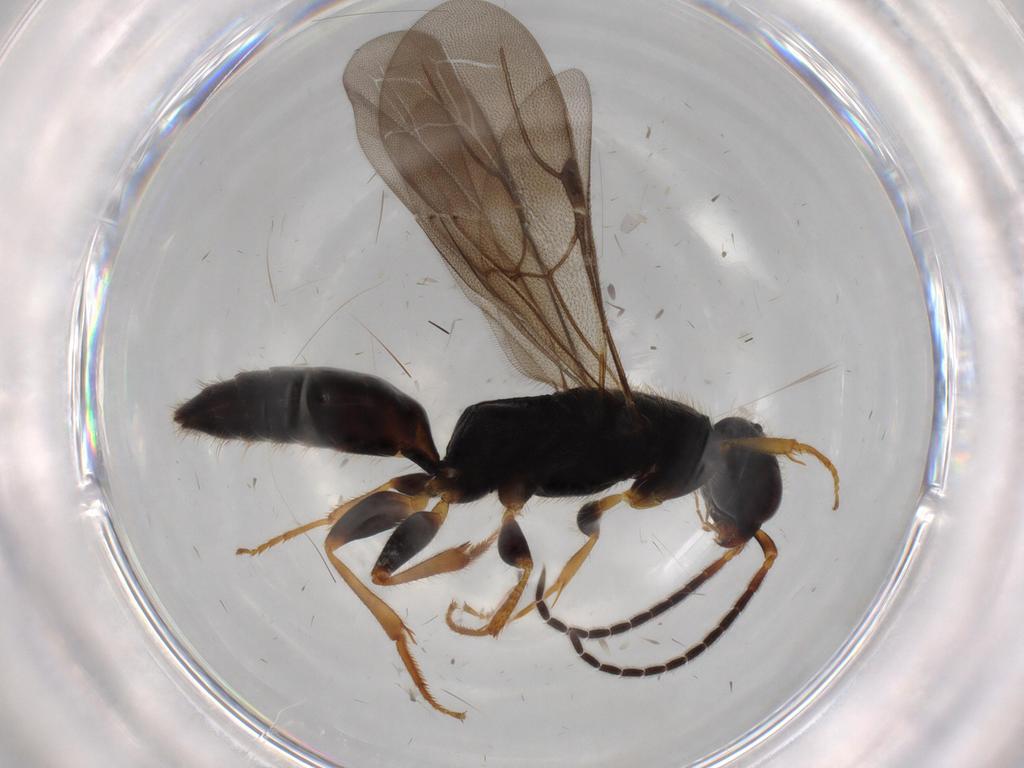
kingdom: Animalia
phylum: Arthropoda
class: Insecta
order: Hymenoptera
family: Bethylidae
